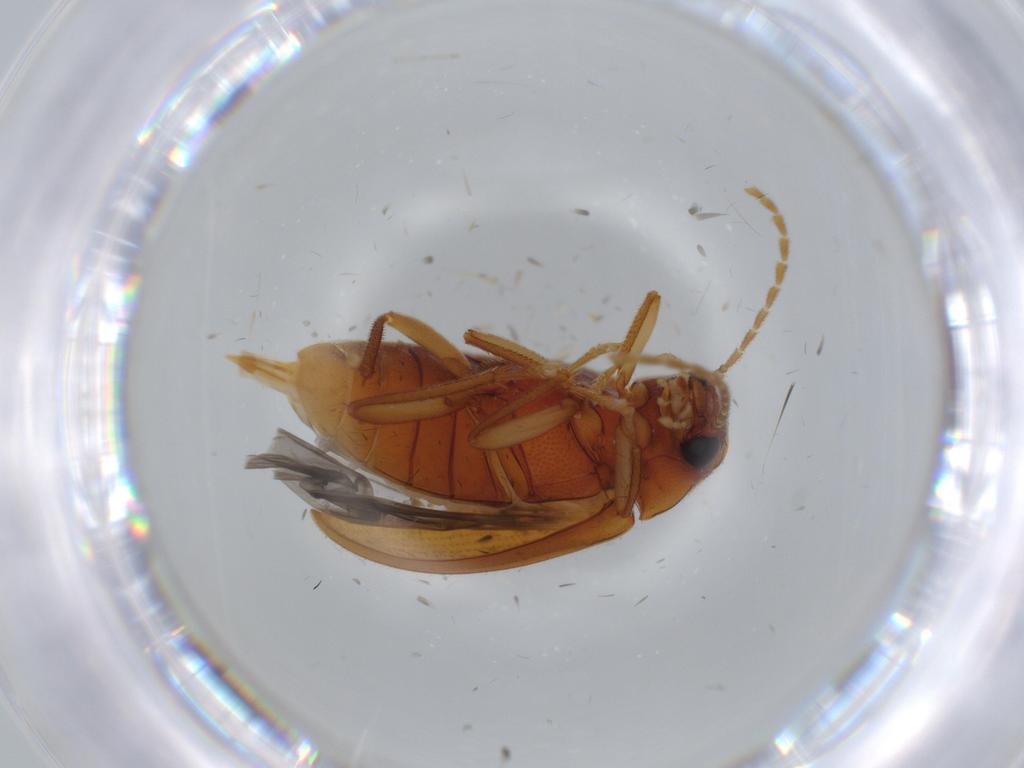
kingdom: Animalia
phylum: Arthropoda
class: Insecta
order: Coleoptera
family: Ptilodactylidae
